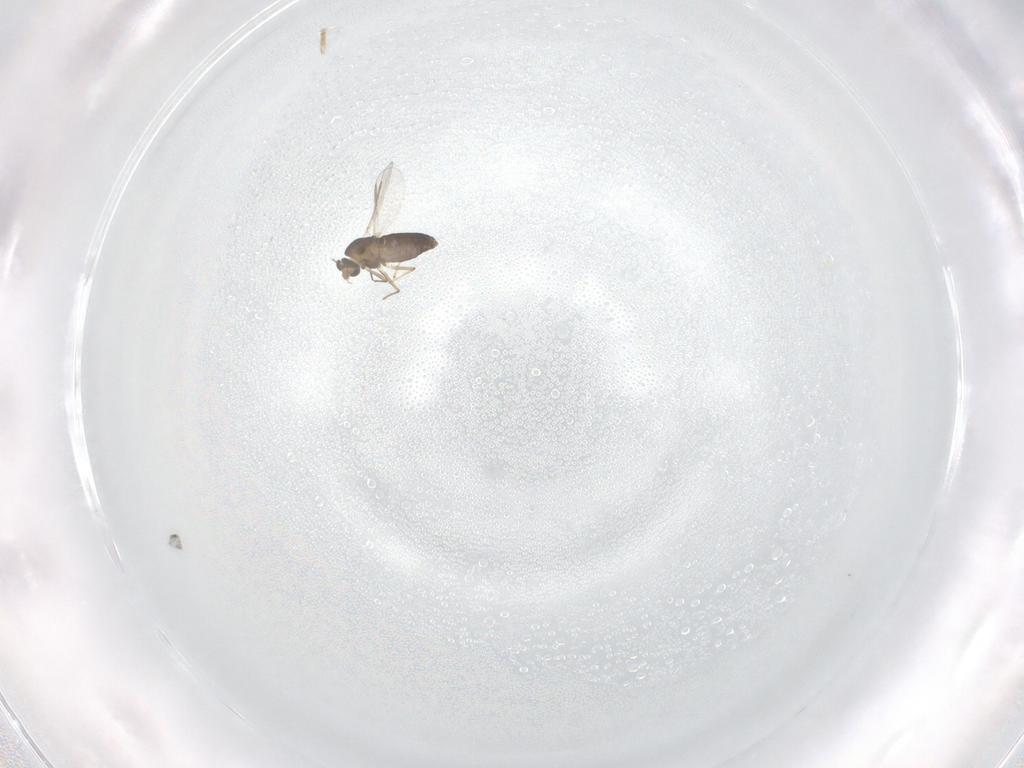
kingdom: Animalia
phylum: Arthropoda
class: Insecta
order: Diptera
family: Chironomidae
